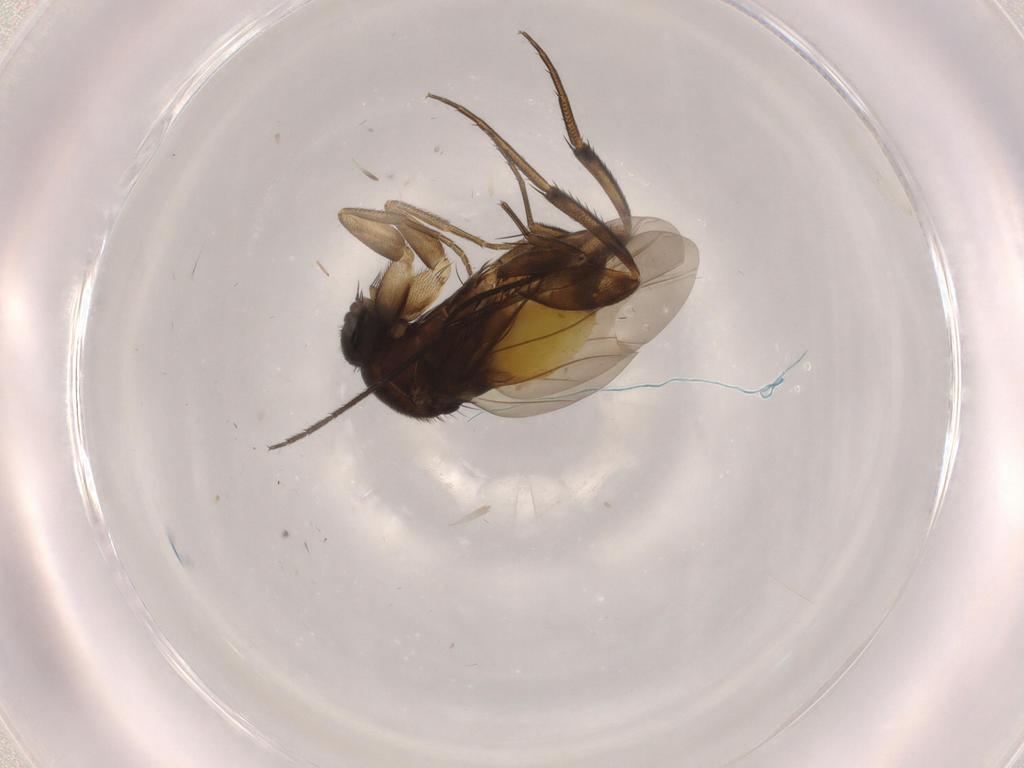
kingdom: Animalia
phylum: Arthropoda
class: Insecta
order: Diptera
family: Phoridae
